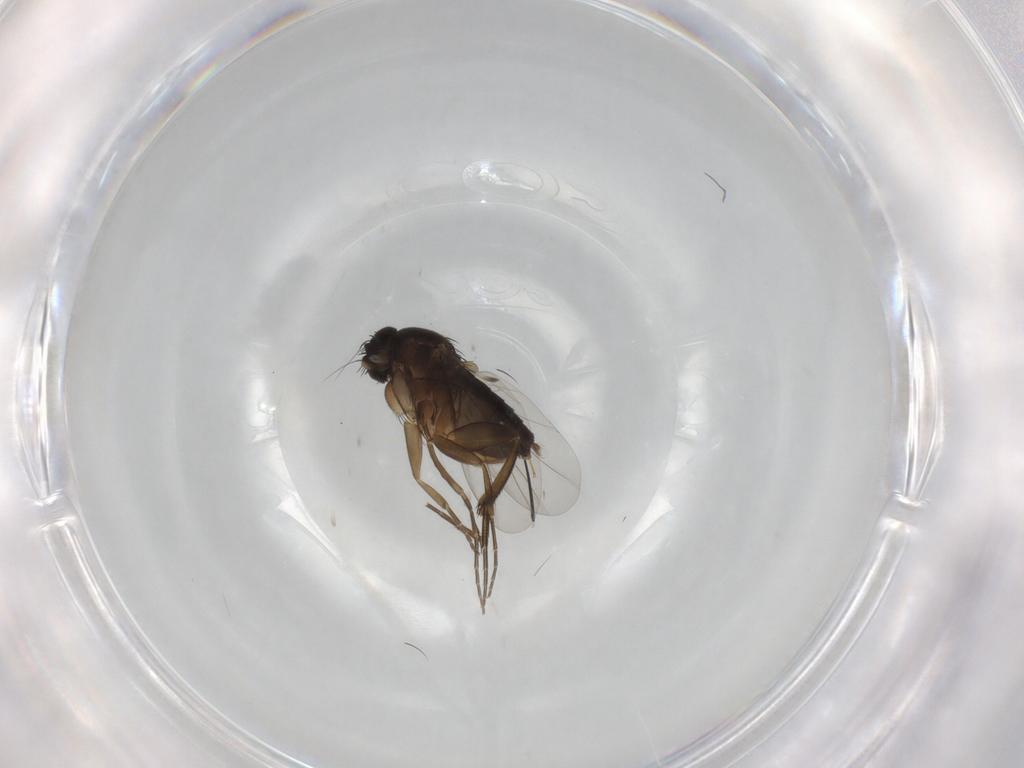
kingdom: Animalia
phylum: Arthropoda
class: Insecta
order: Diptera
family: Phoridae
